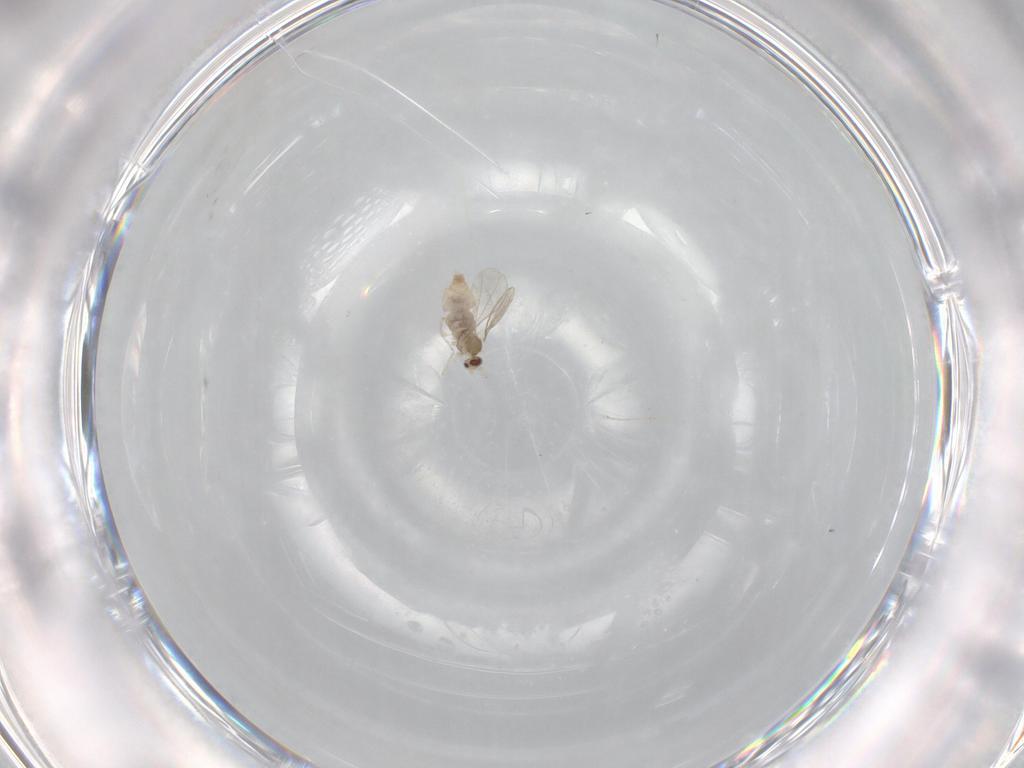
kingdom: Animalia
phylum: Arthropoda
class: Insecta
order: Diptera
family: Cecidomyiidae
